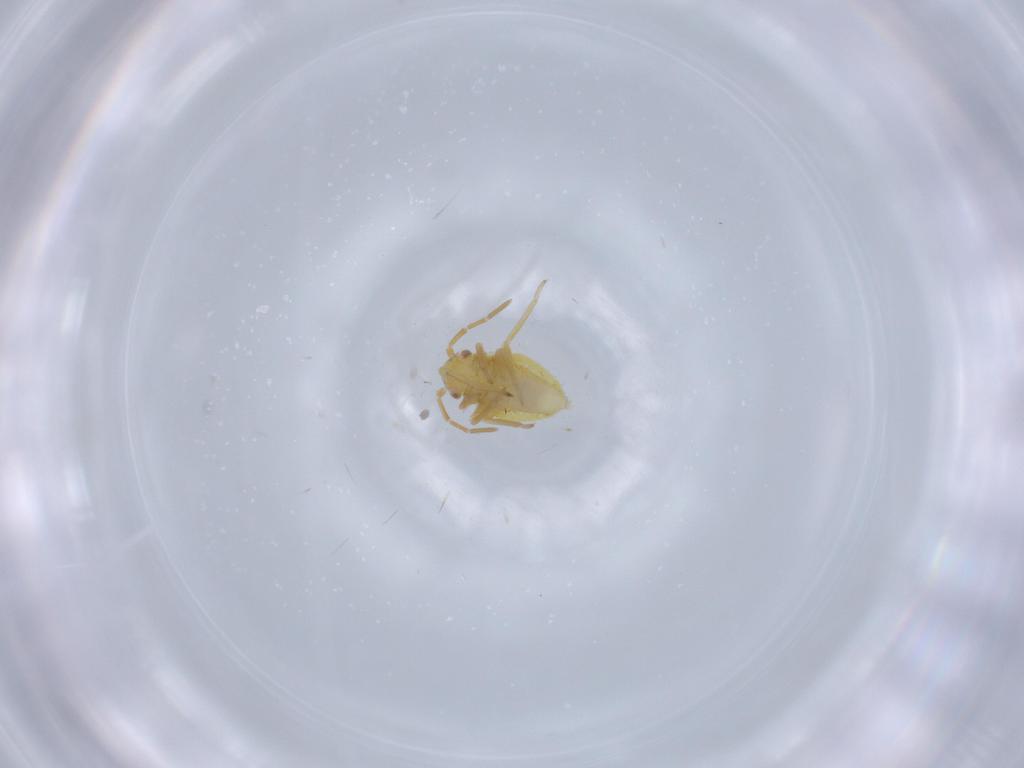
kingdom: Animalia
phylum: Arthropoda
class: Insecta
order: Hemiptera
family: Miridae
